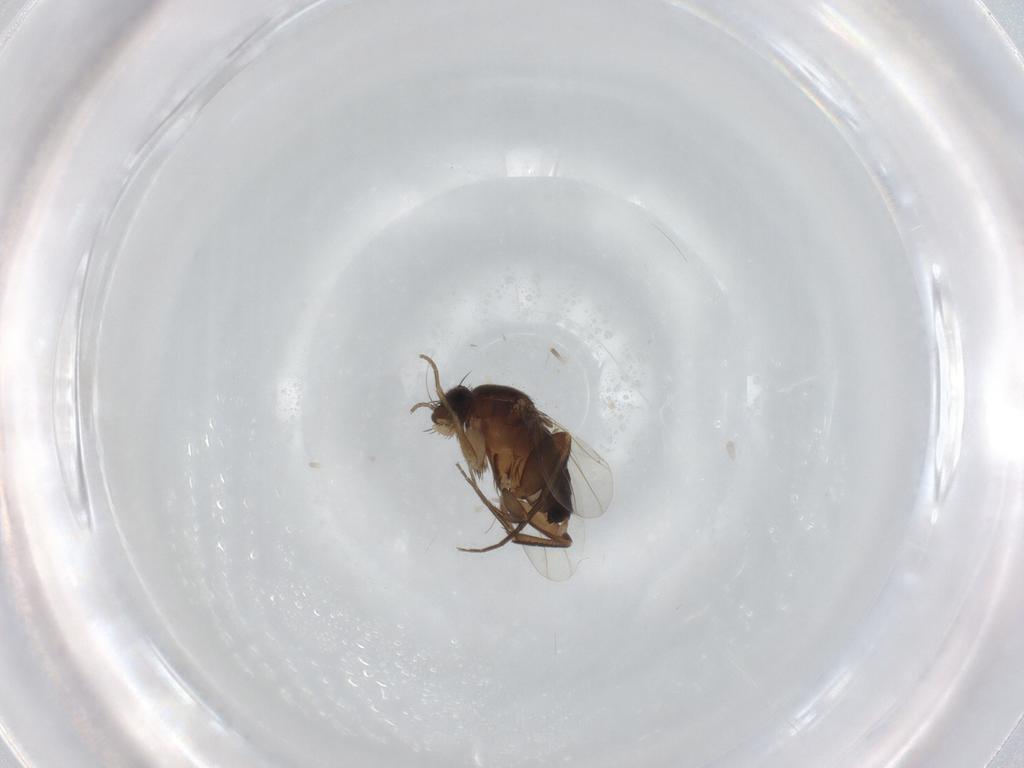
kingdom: Animalia
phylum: Arthropoda
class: Insecta
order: Diptera
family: Phoridae
